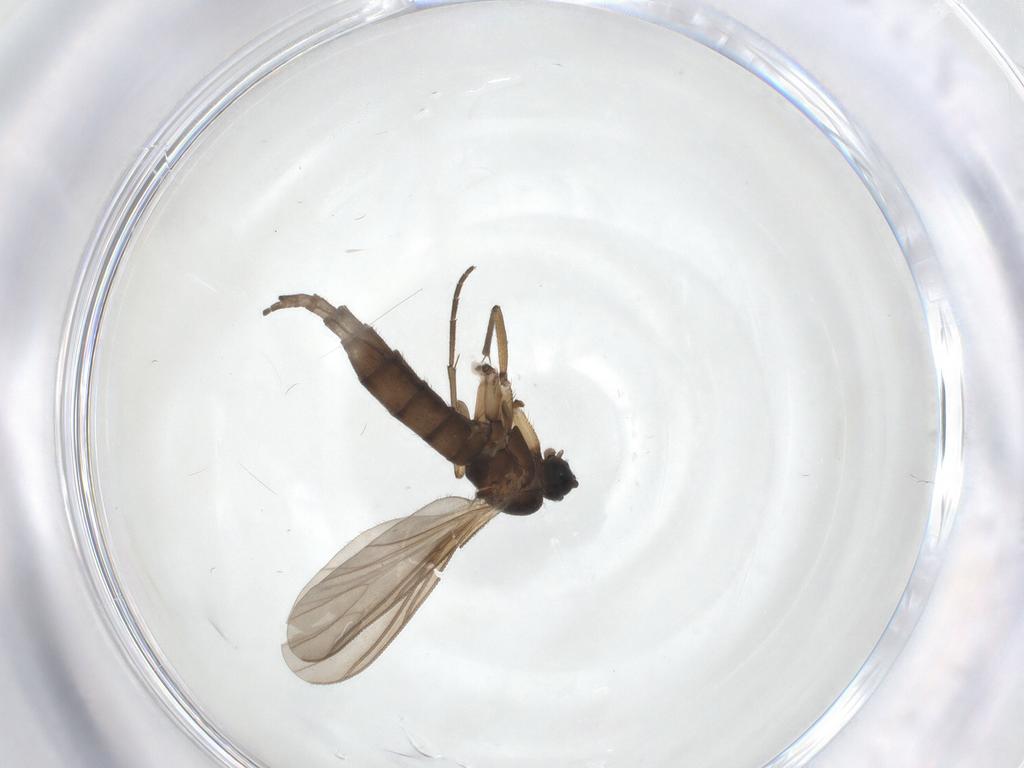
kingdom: Animalia
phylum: Arthropoda
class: Insecta
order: Diptera
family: Sciaridae
